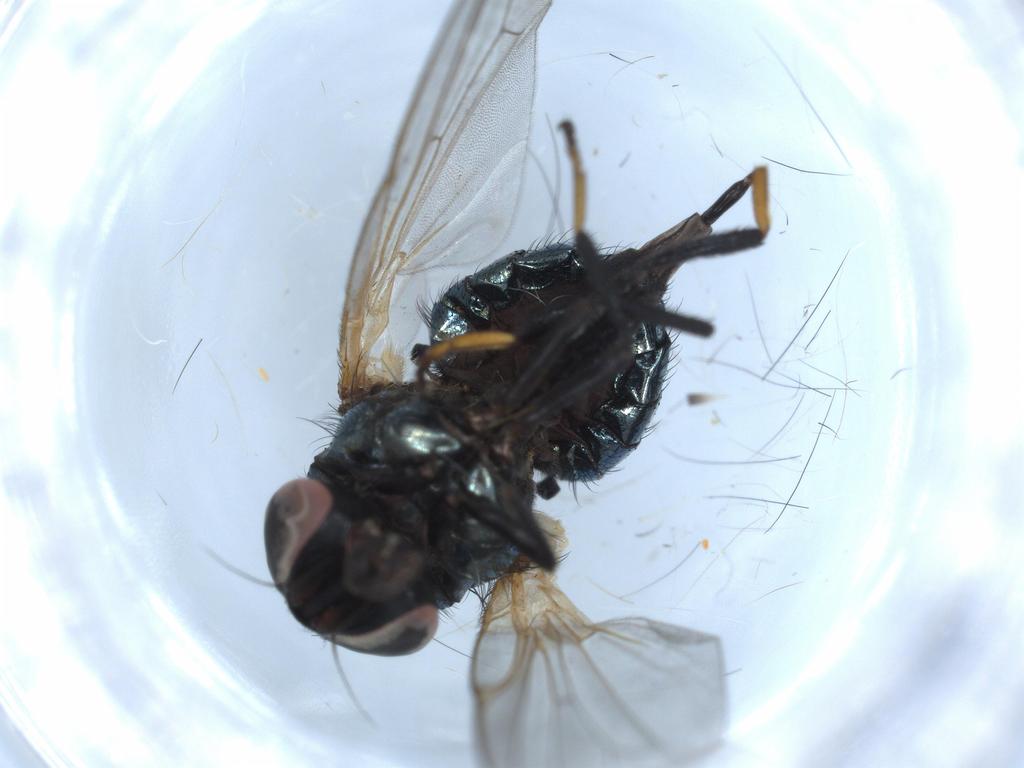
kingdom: Animalia
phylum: Arthropoda
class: Insecta
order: Diptera
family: Lonchaeidae
